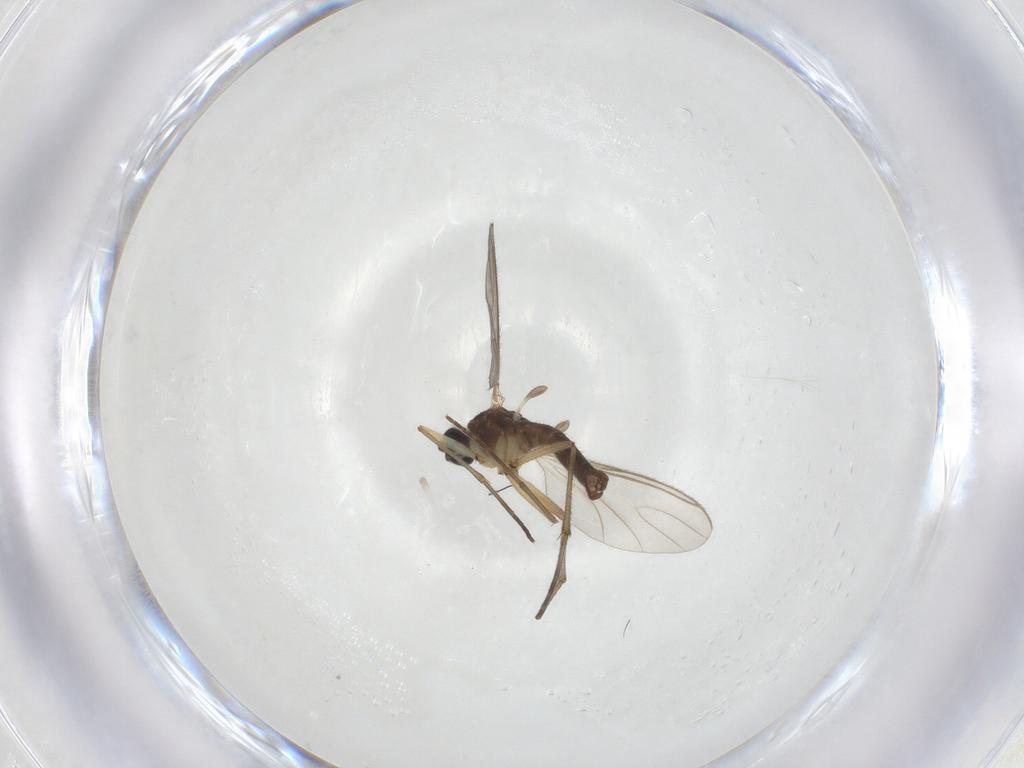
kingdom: Animalia
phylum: Arthropoda
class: Insecta
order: Diptera
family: Sciaridae
